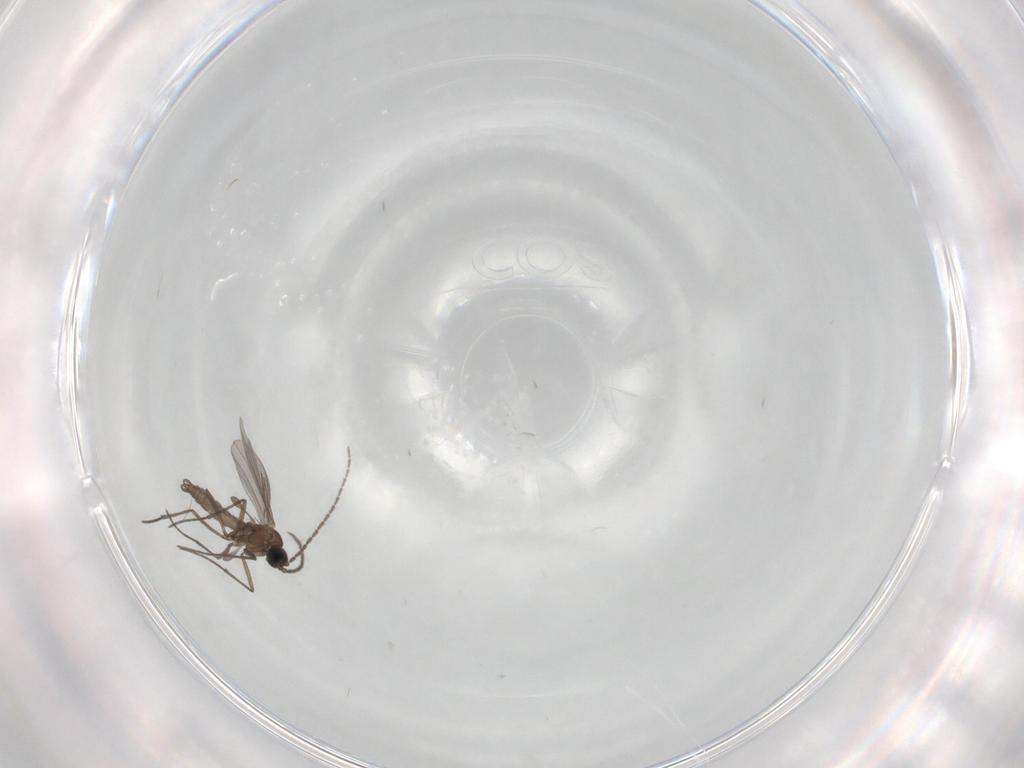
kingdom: Animalia
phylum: Arthropoda
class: Insecta
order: Diptera
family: Sciaridae
